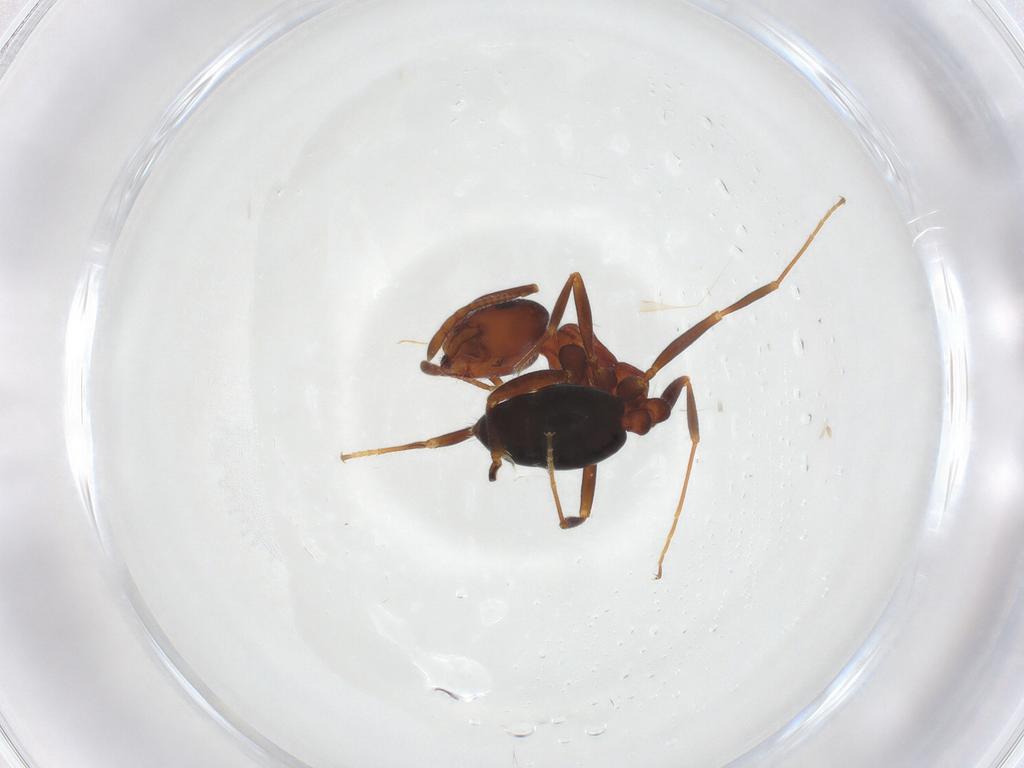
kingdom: Animalia
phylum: Arthropoda
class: Insecta
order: Hymenoptera
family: Formicidae
